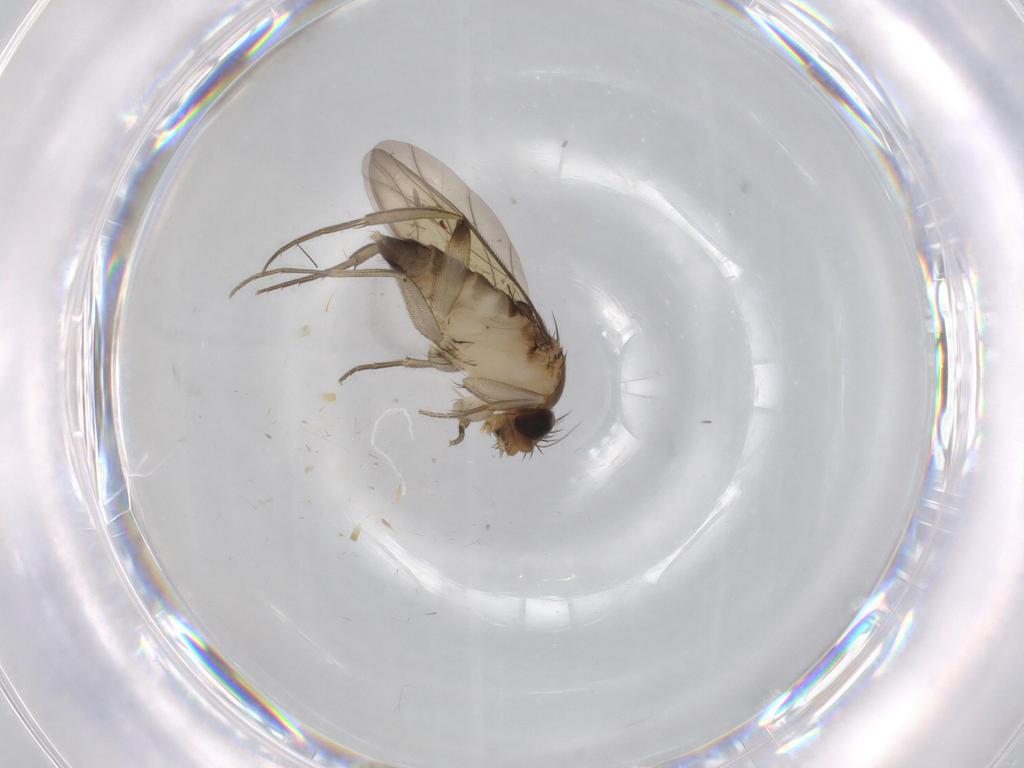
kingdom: Animalia
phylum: Arthropoda
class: Insecta
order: Diptera
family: Phoridae
